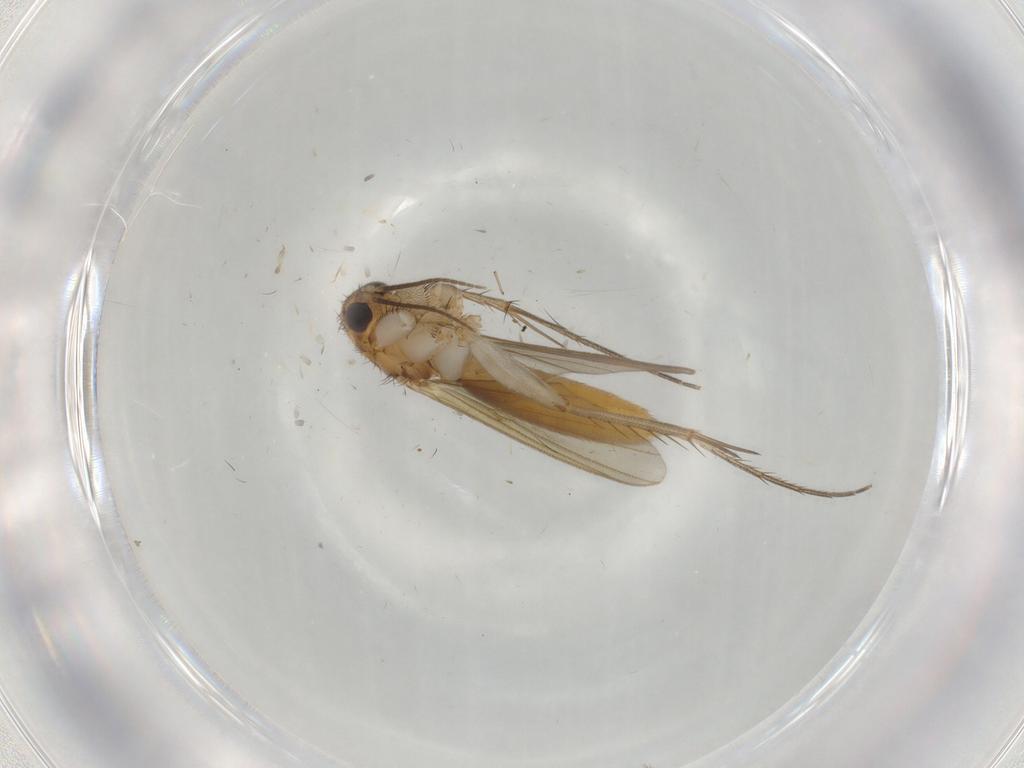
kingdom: Animalia
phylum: Arthropoda
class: Insecta
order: Diptera
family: Mycetophilidae
